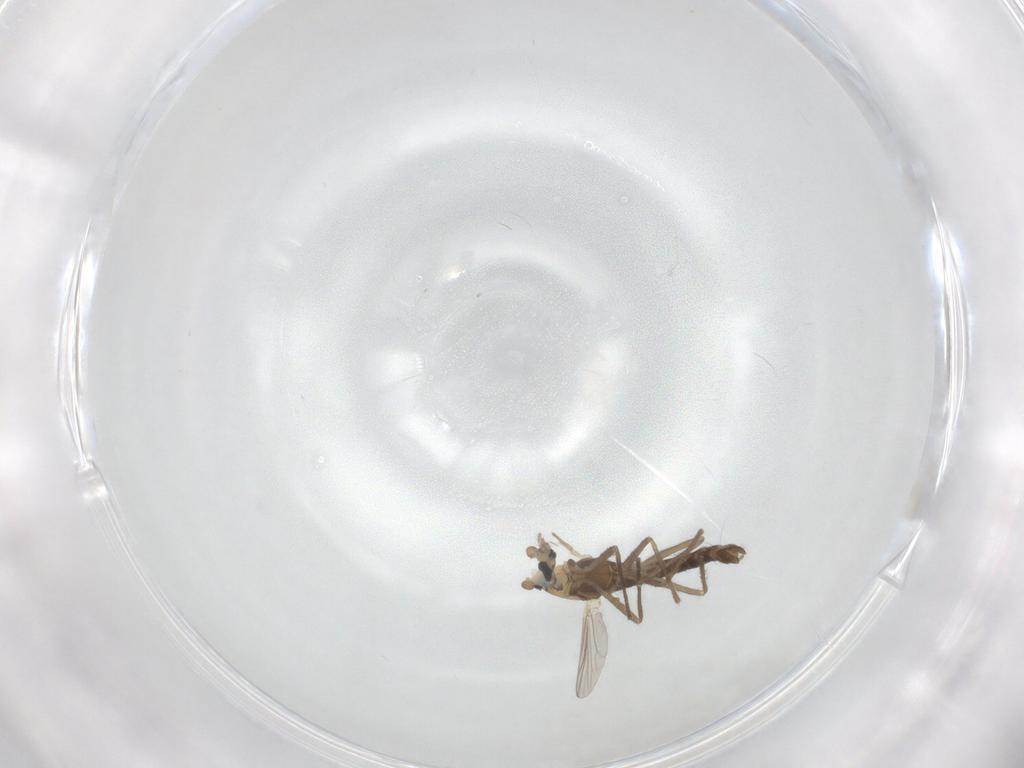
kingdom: Animalia
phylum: Arthropoda
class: Insecta
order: Diptera
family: Chironomidae
